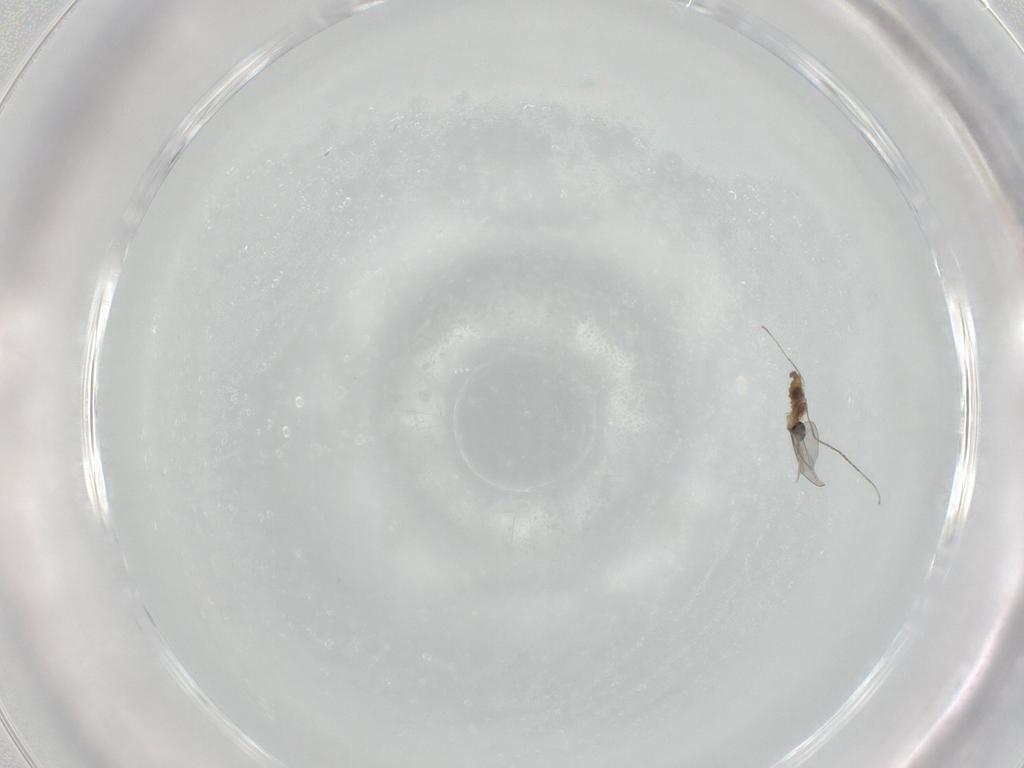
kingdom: Animalia
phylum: Arthropoda
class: Insecta
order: Diptera
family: Cecidomyiidae
